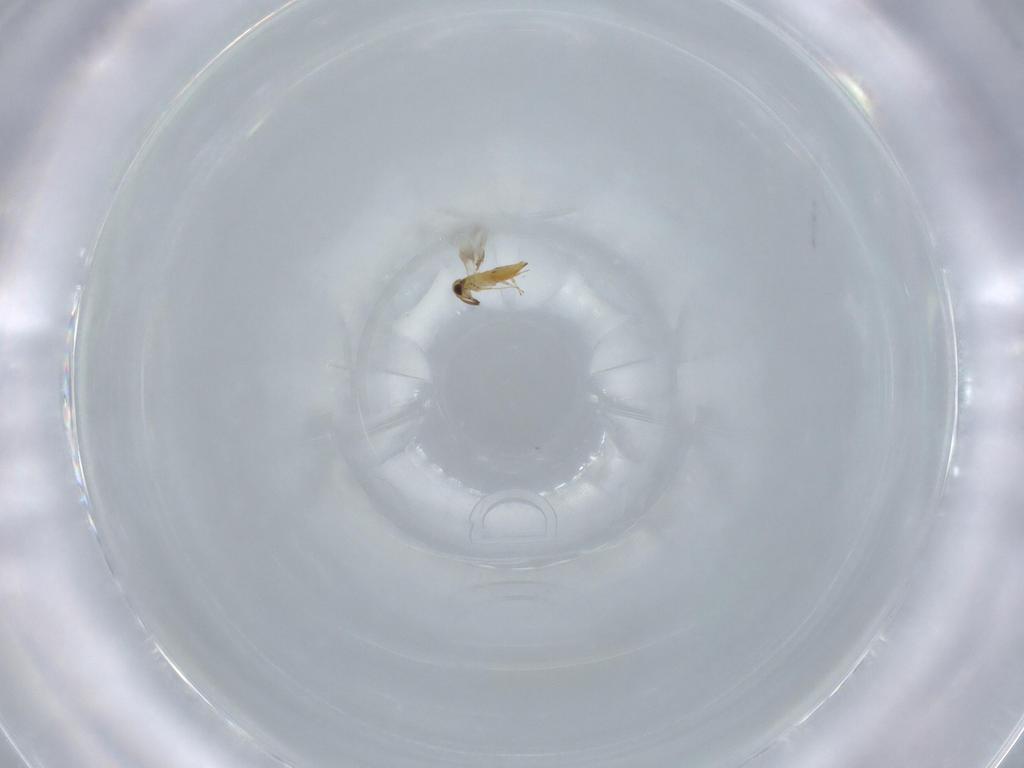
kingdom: Animalia
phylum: Arthropoda
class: Insecta
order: Hymenoptera
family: Signiphoridae
